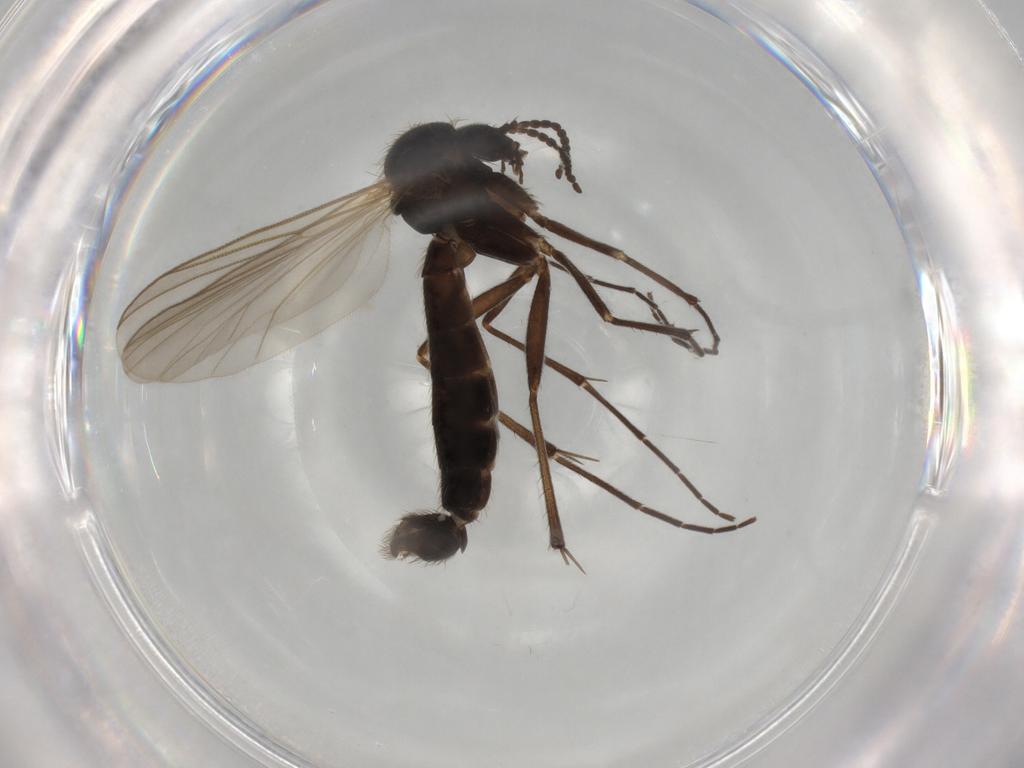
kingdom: Animalia
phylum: Arthropoda
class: Insecta
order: Diptera
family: Mycetophilidae
